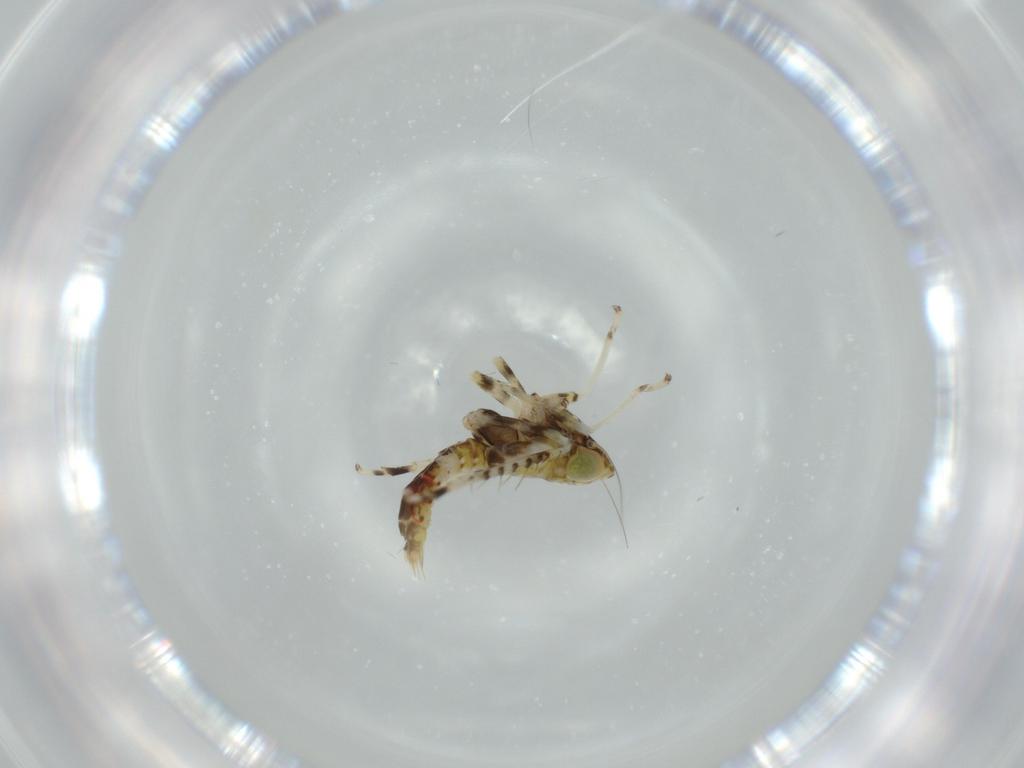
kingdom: Animalia
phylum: Arthropoda
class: Insecta
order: Hemiptera
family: Cicadellidae
